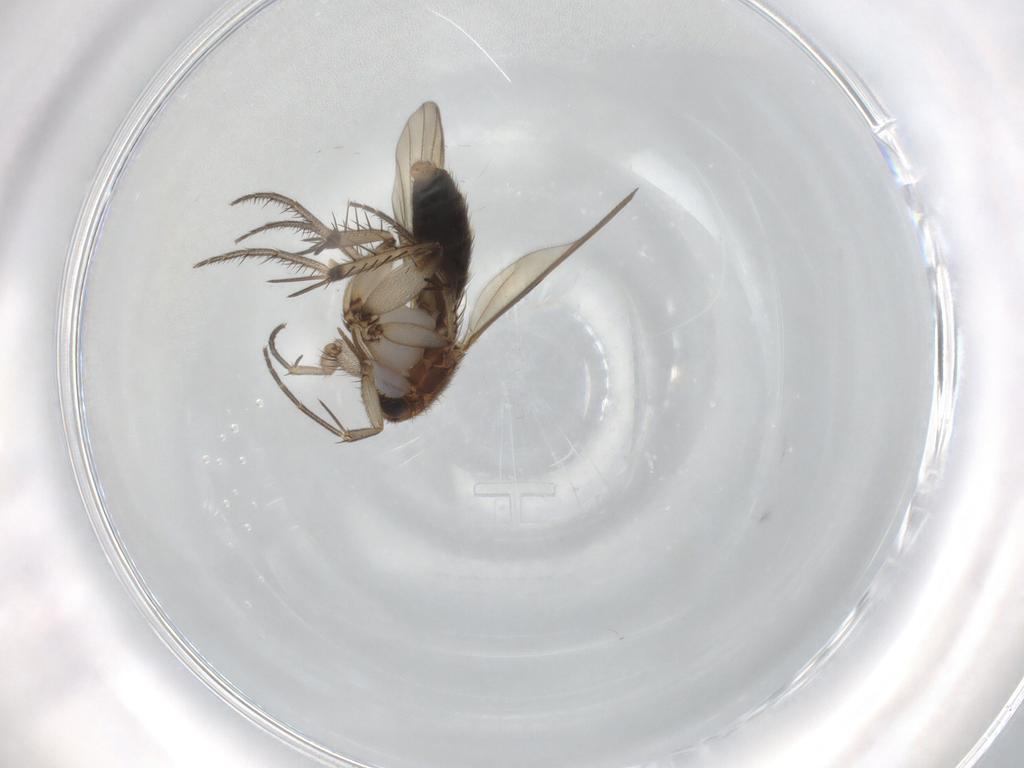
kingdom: Animalia
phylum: Arthropoda
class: Insecta
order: Diptera
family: Mycetophilidae
